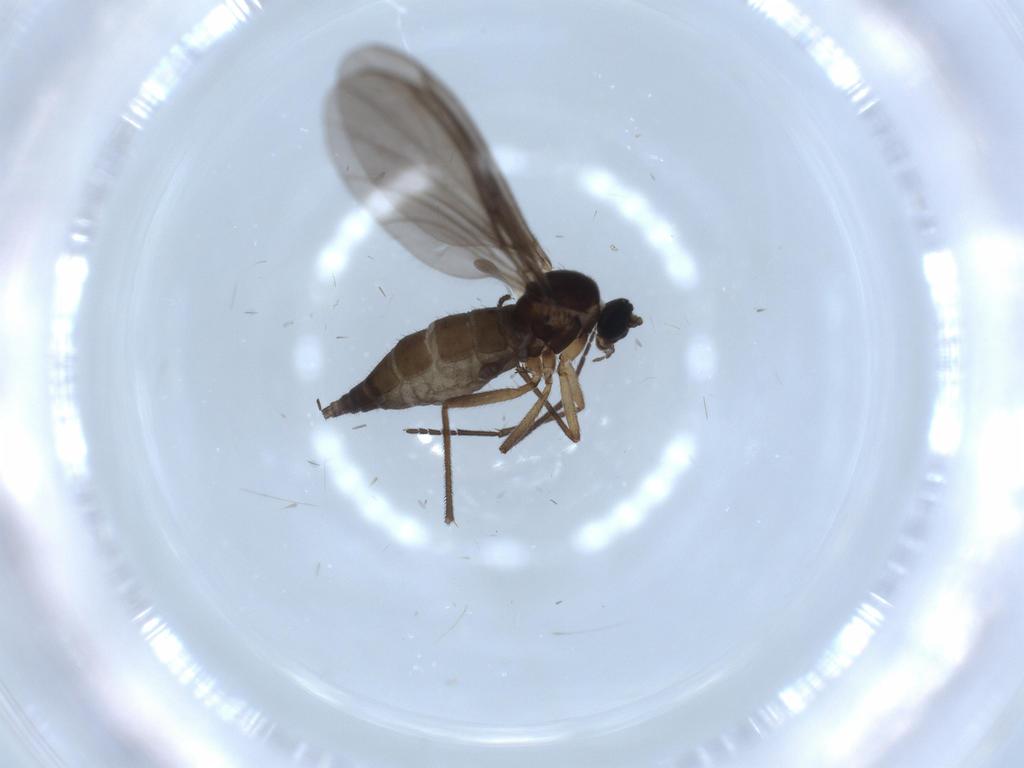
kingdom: Animalia
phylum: Arthropoda
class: Insecta
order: Diptera
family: Sciaridae
